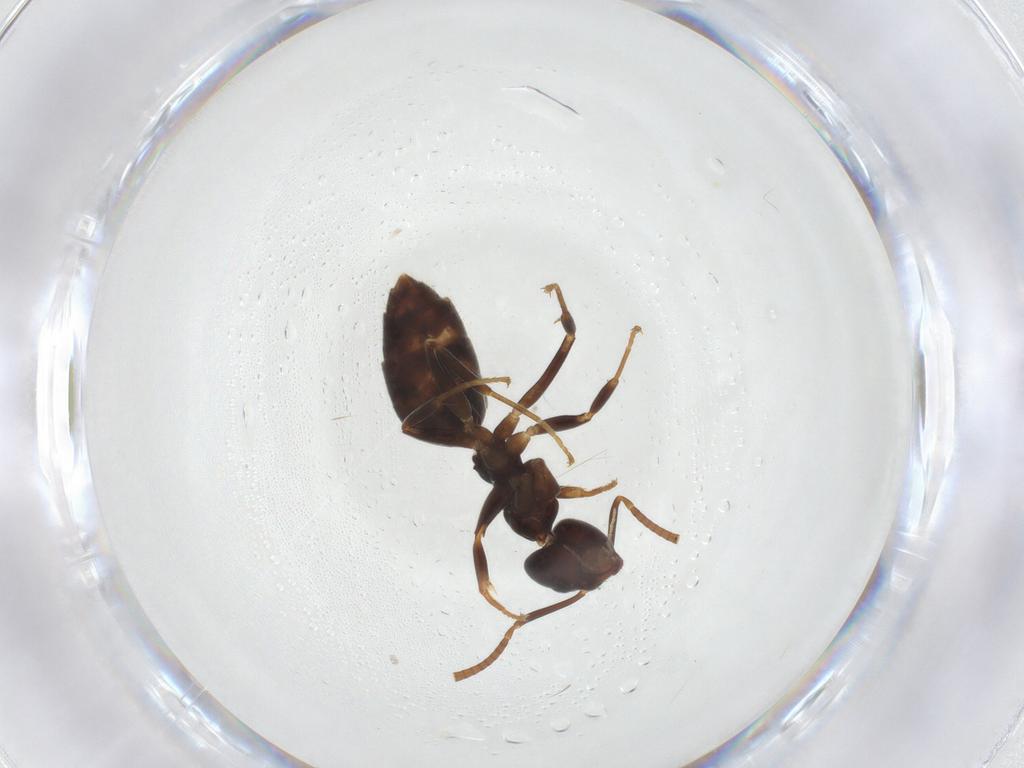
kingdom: Animalia
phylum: Arthropoda
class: Insecta
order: Hymenoptera
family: Formicidae
